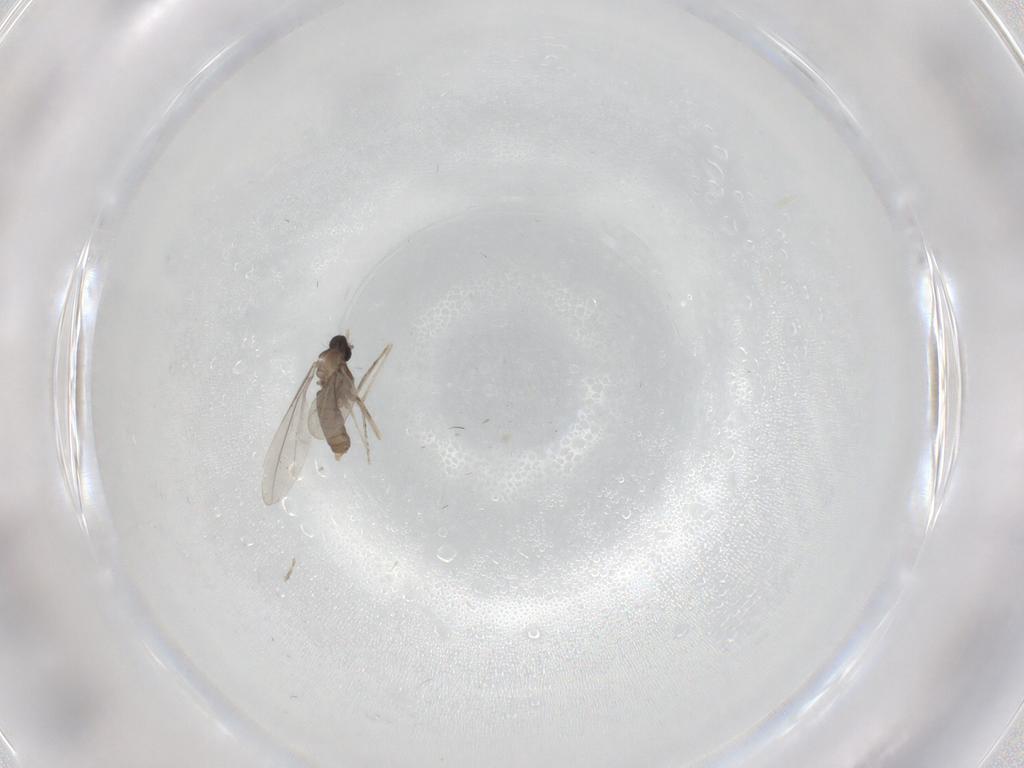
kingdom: Animalia
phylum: Arthropoda
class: Insecta
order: Diptera
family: Cecidomyiidae
